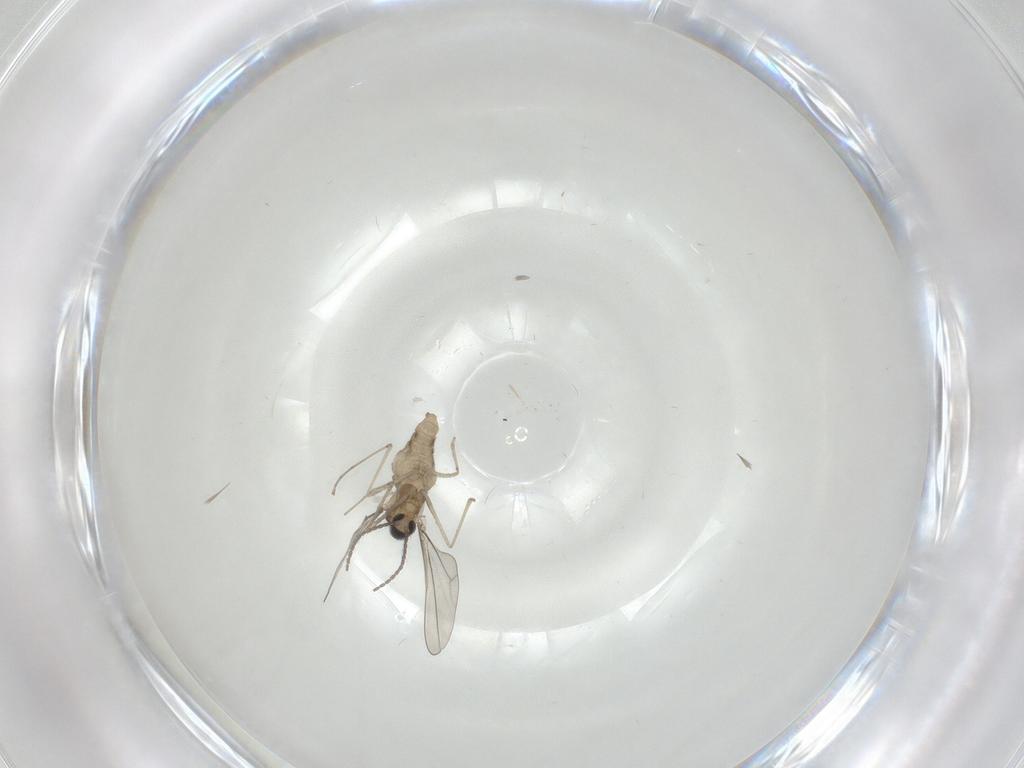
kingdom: Animalia
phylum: Arthropoda
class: Insecta
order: Diptera
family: Cecidomyiidae
